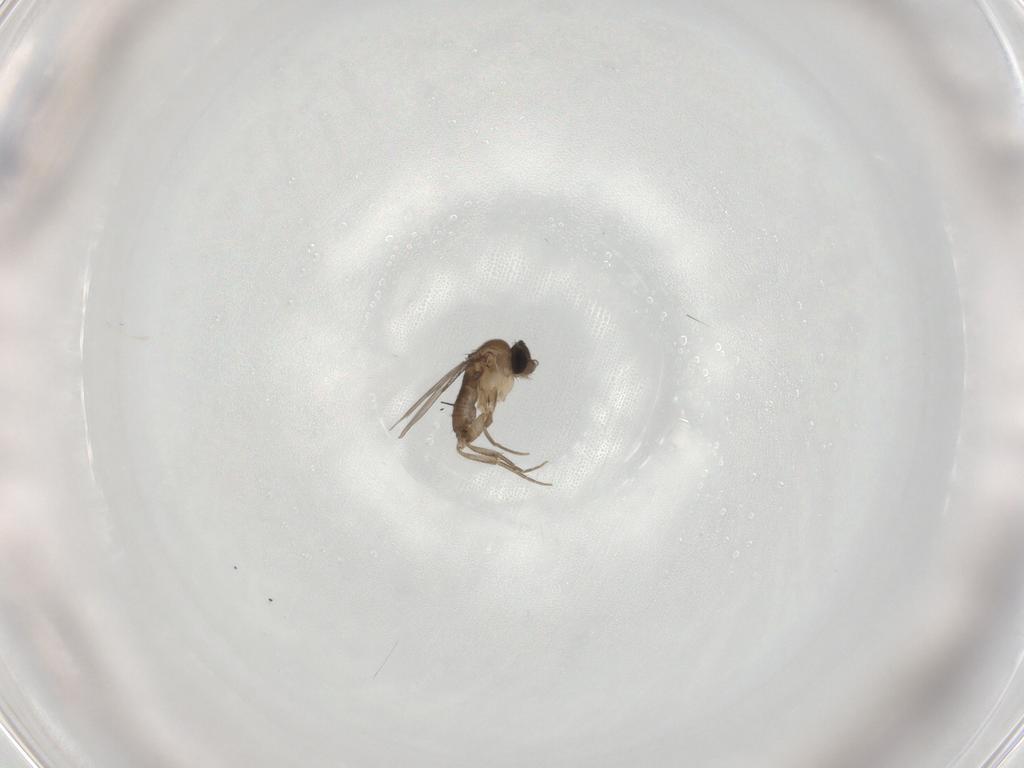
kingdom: Animalia
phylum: Arthropoda
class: Insecta
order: Diptera
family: Phoridae
